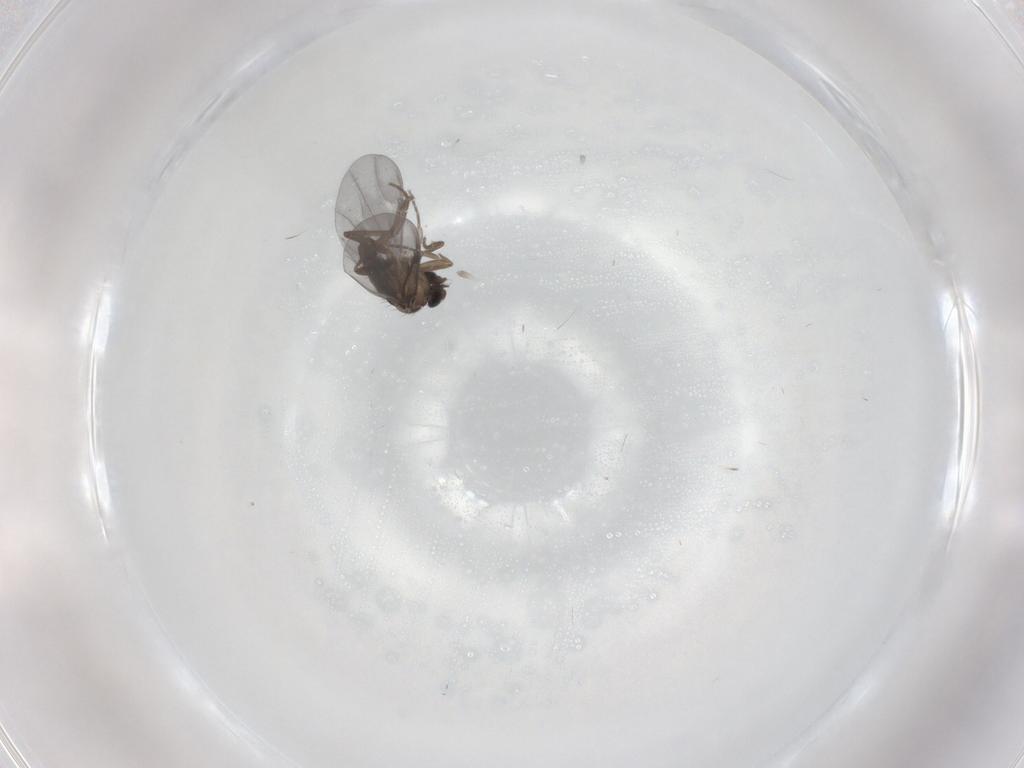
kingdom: Animalia
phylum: Arthropoda
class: Insecta
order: Diptera
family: Phoridae
